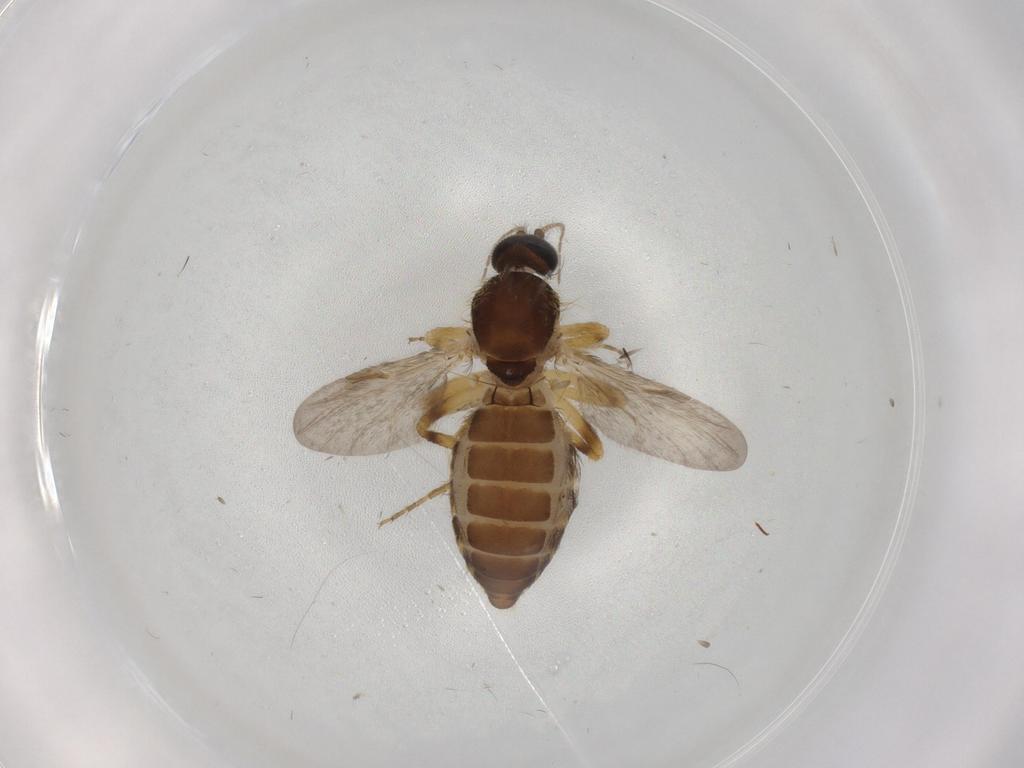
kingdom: Animalia
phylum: Arthropoda
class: Insecta
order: Diptera
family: Ceratopogonidae
